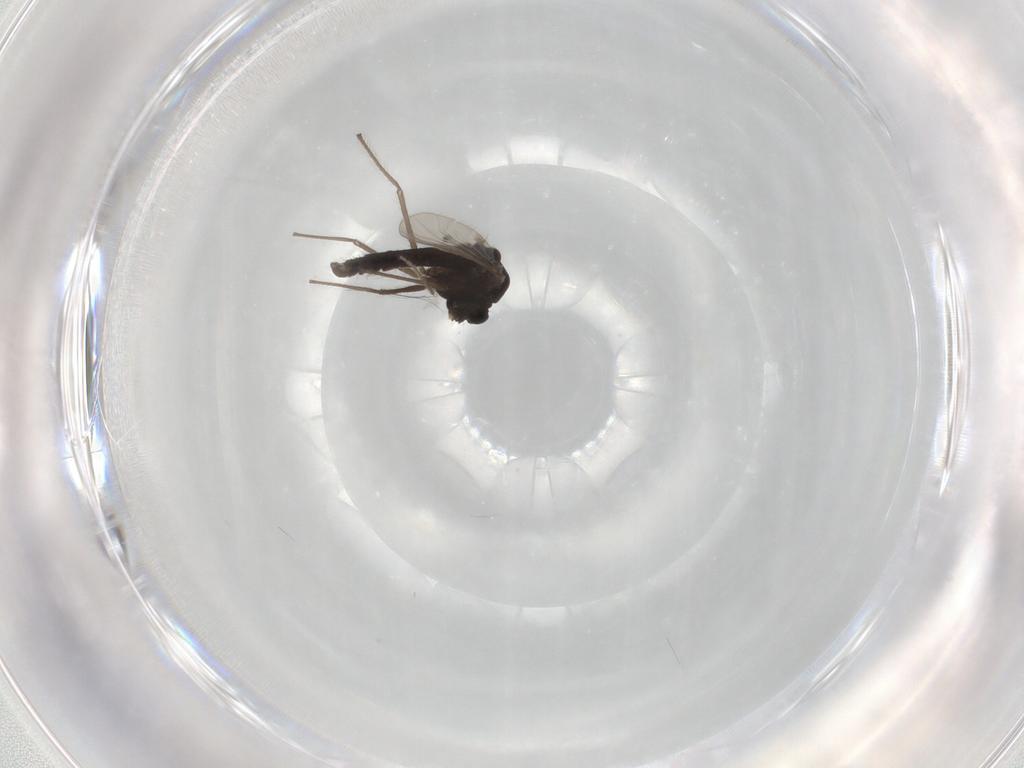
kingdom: Animalia
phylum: Arthropoda
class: Insecta
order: Diptera
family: Chironomidae
